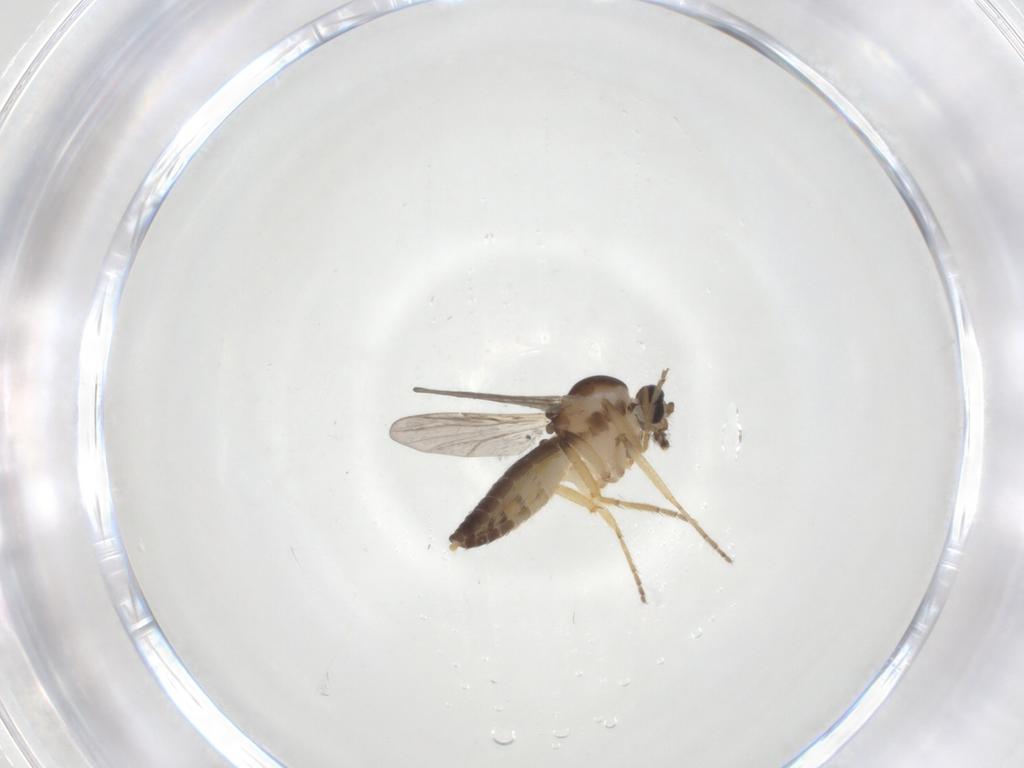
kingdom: Animalia
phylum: Arthropoda
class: Insecta
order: Diptera
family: Ceratopogonidae
